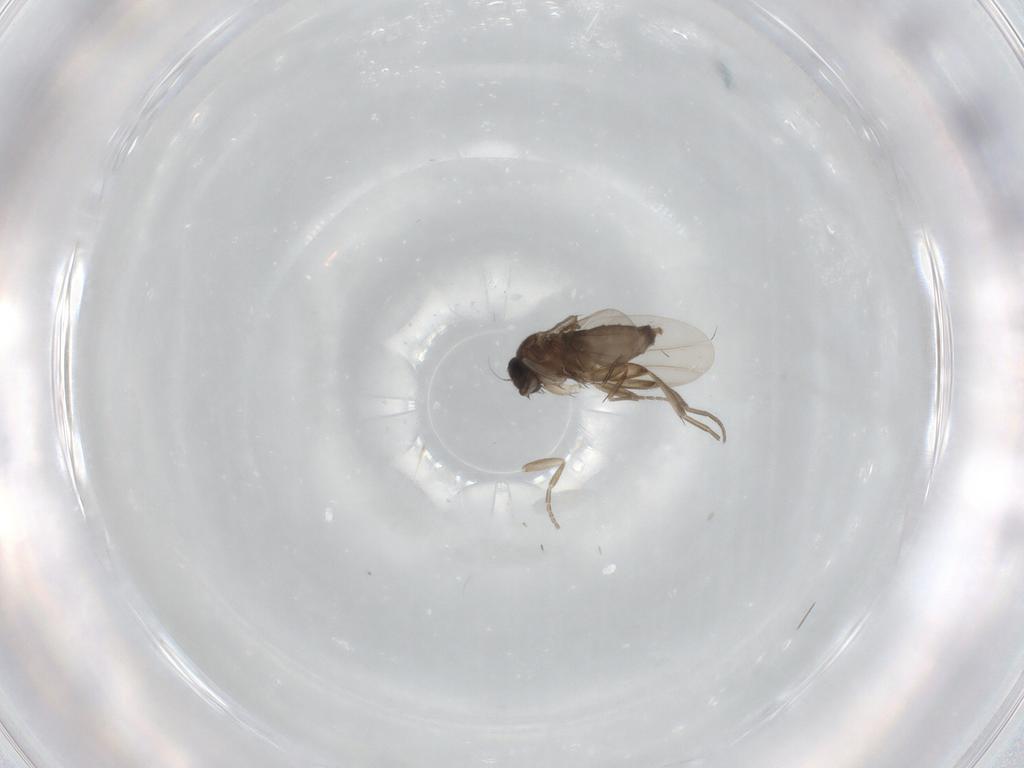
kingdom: Animalia
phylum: Arthropoda
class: Insecta
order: Diptera
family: Phoridae
